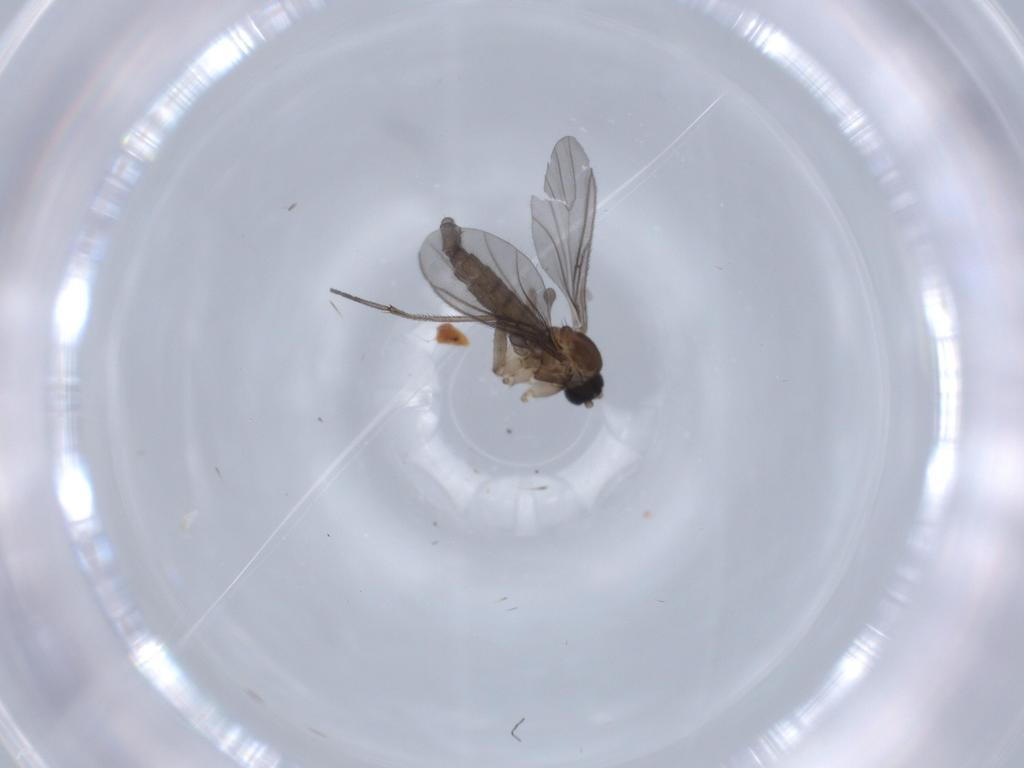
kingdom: Animalia
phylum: Arthropoda
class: Insecta
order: Diptera
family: Sciaridae
